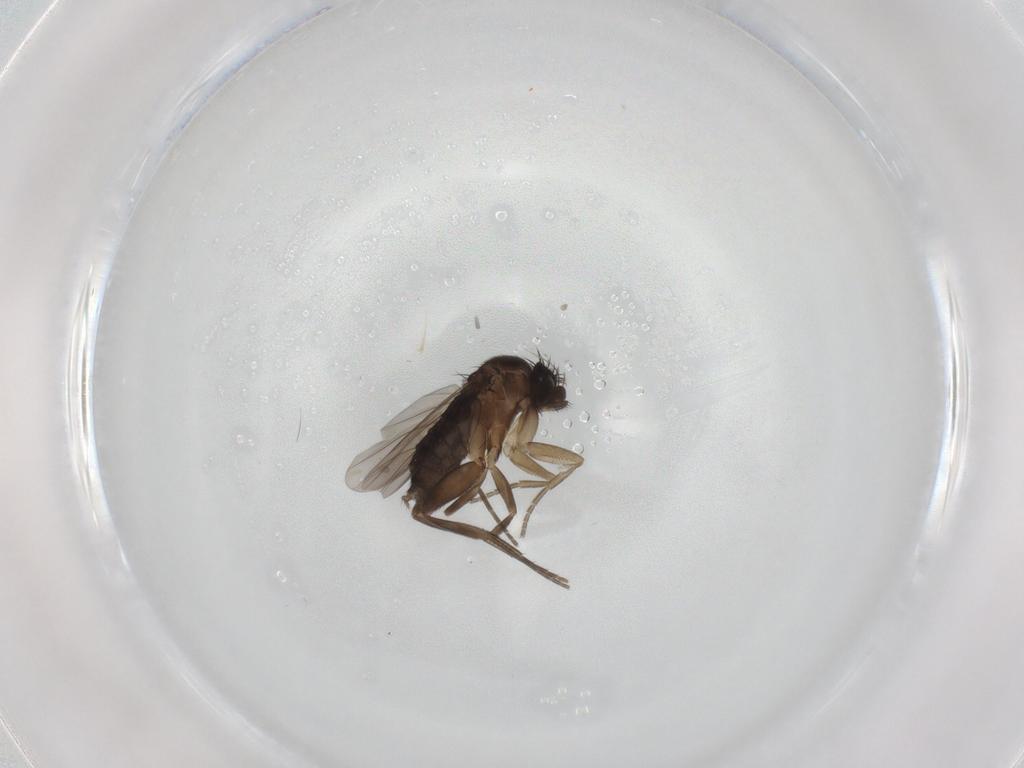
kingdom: Animalia
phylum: Arthropoda
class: Insecta
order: Diptera
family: Phoridae
